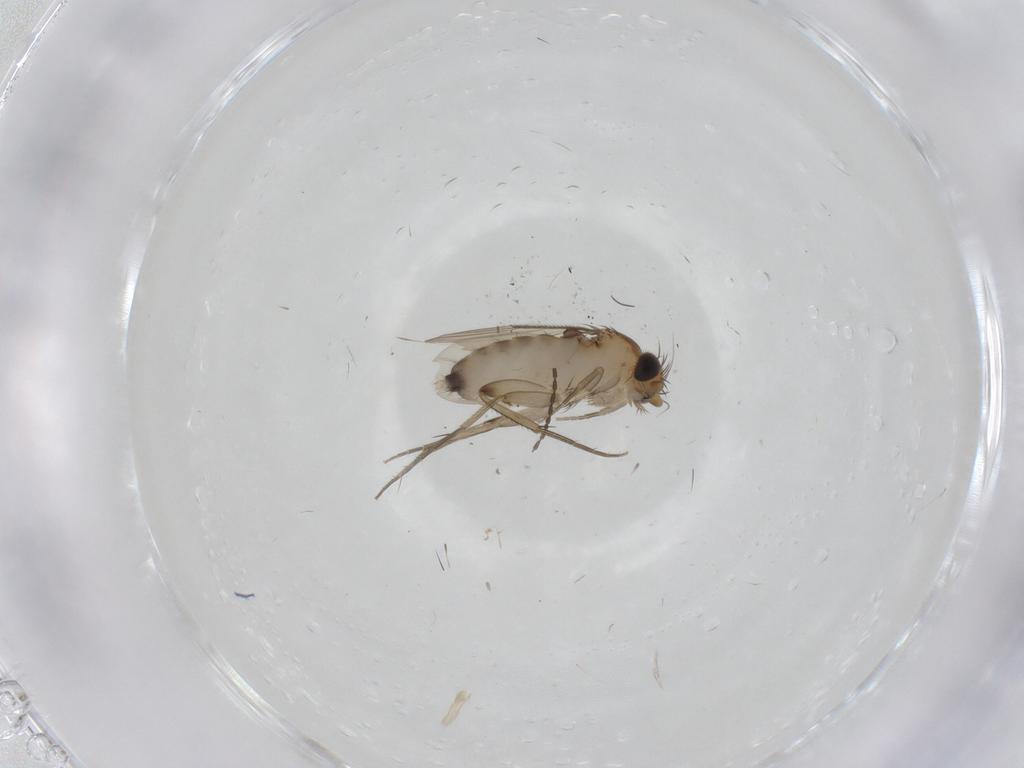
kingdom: Animalia
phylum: Arthropoda
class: Insecta
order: Diptera
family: Phoridae
